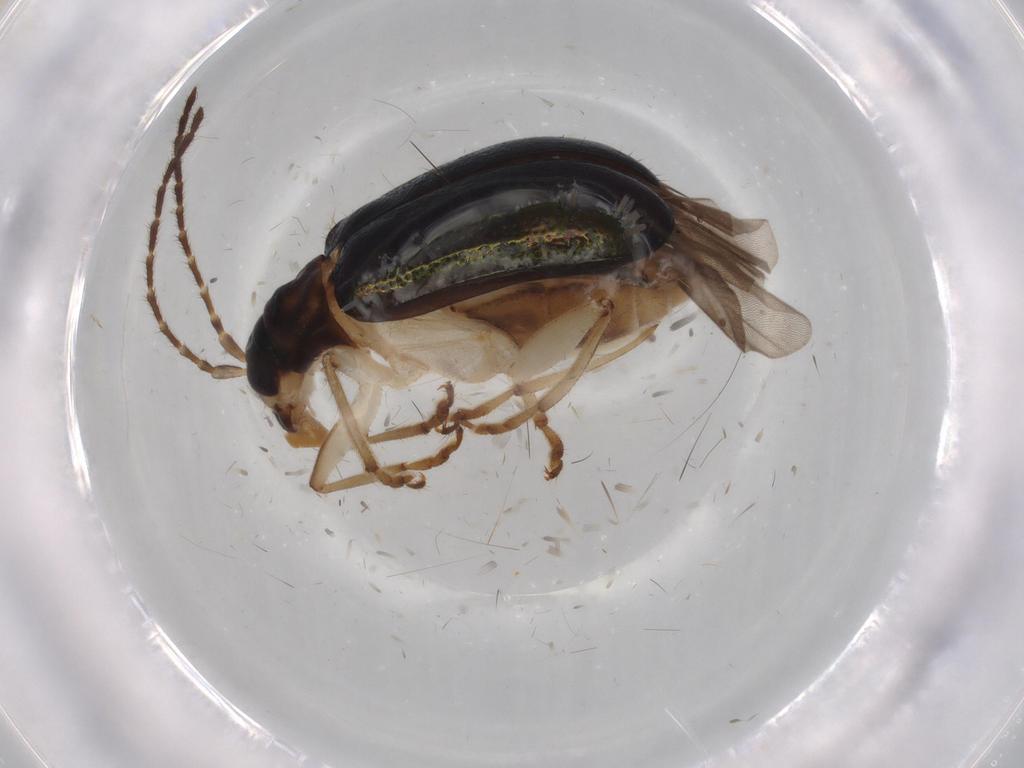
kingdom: Animalia
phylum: Arthropoda
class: Insecta
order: Coleoptera
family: Chrysomelidae
